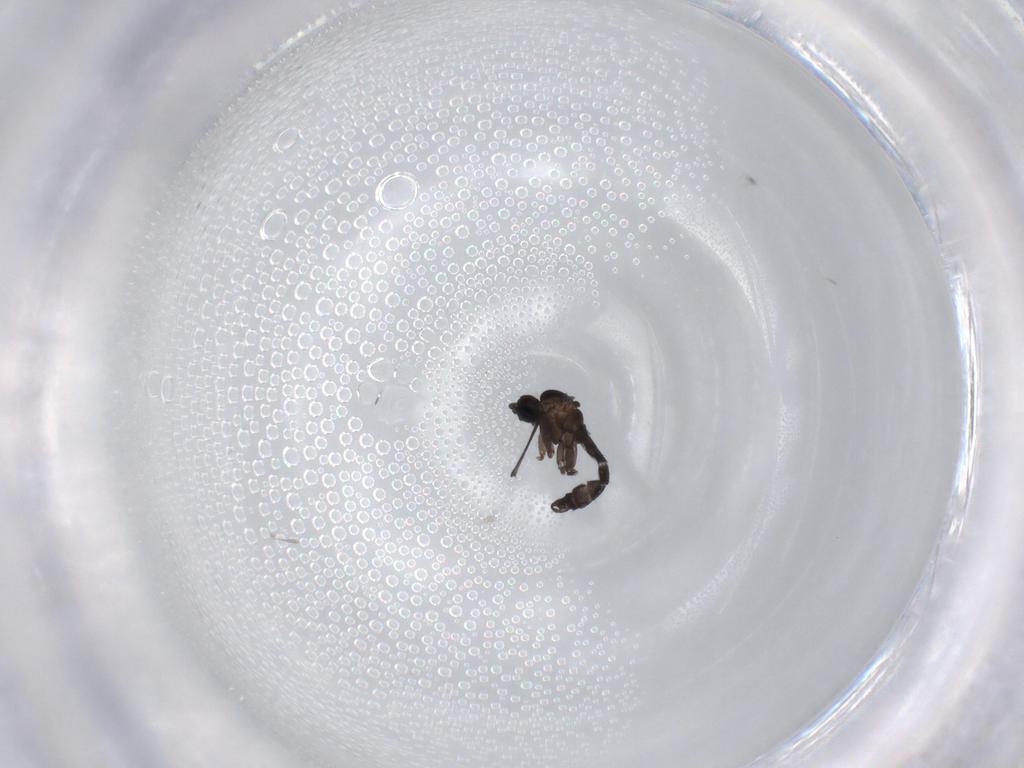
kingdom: Animalia
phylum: Arthropoda
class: Insecta
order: Diptera
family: Sciaridae
